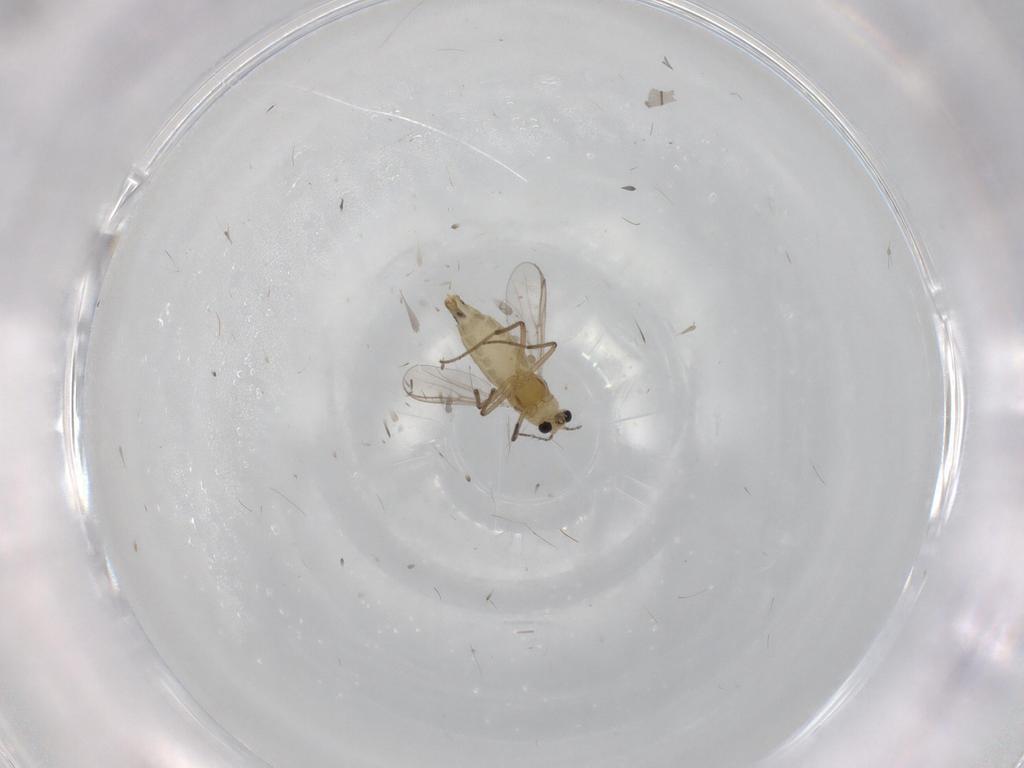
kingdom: Animalia
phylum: Arthropoda
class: Insecta
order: Diptera
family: Chironomidae
